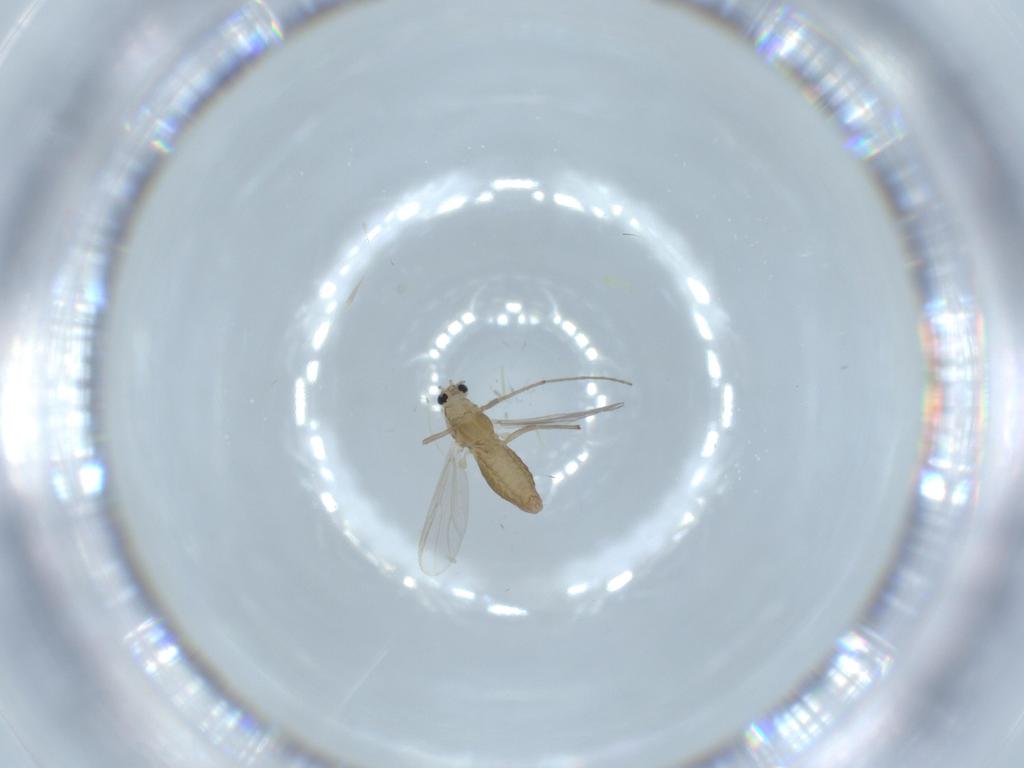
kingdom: Animalia
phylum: Arthropoda
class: Insecta
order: Diptera
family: Chironomidae
